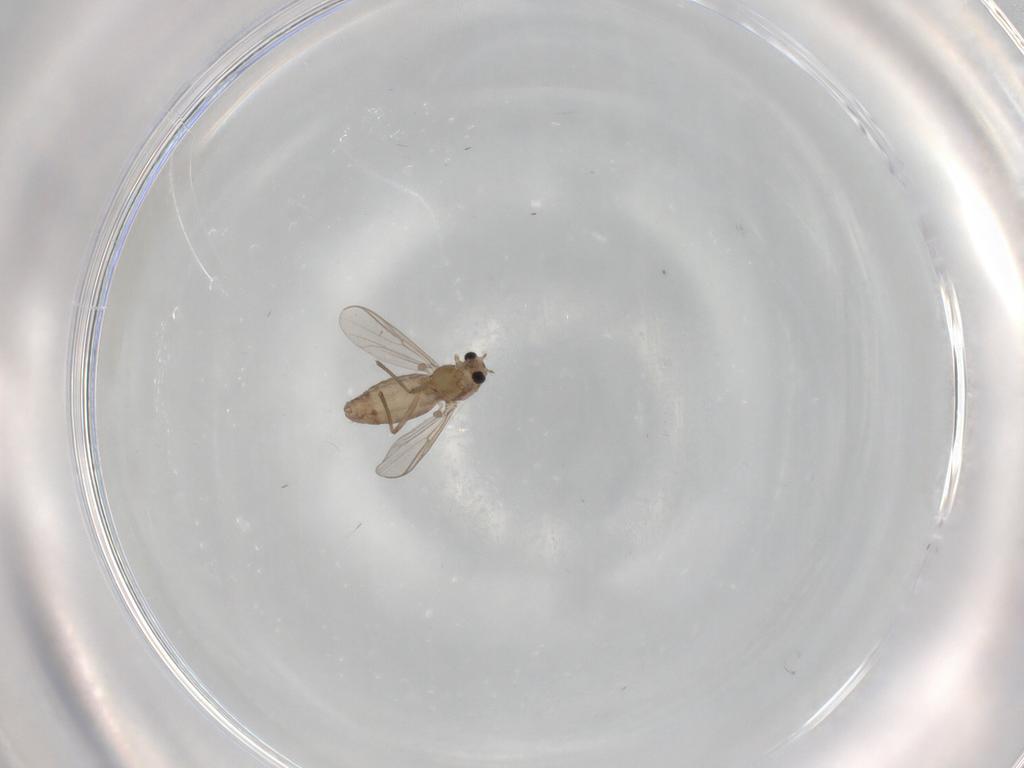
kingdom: Animalia
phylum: Arthropoda
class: Insecta
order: Diptera
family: Chironomidae
